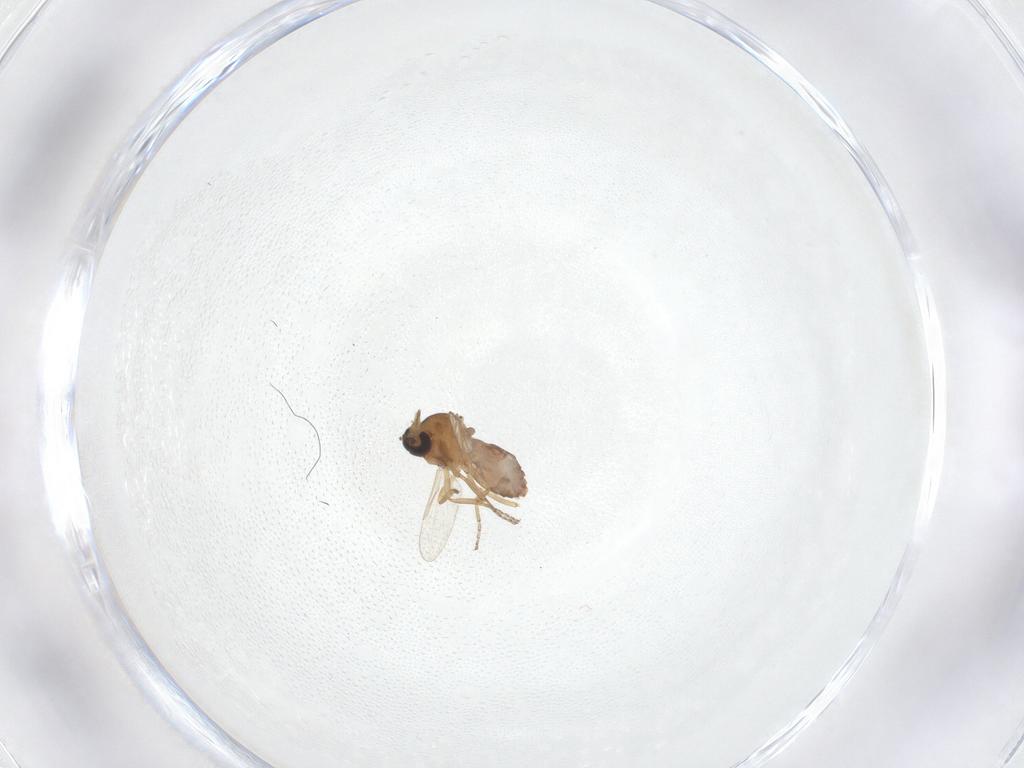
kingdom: Animalia
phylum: Arthropoda
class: Insecta
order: Diptera
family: Ceratopogonidae
